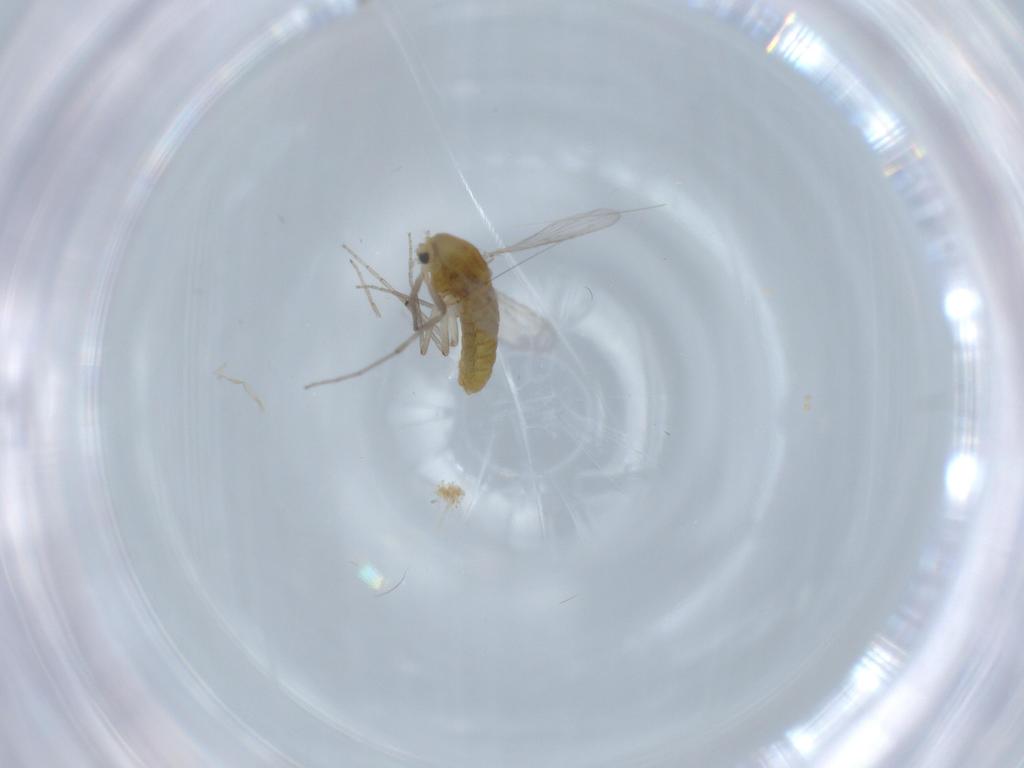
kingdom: Animalia
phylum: Arthropoda
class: Insecta
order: Diptera
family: Chironomidae
